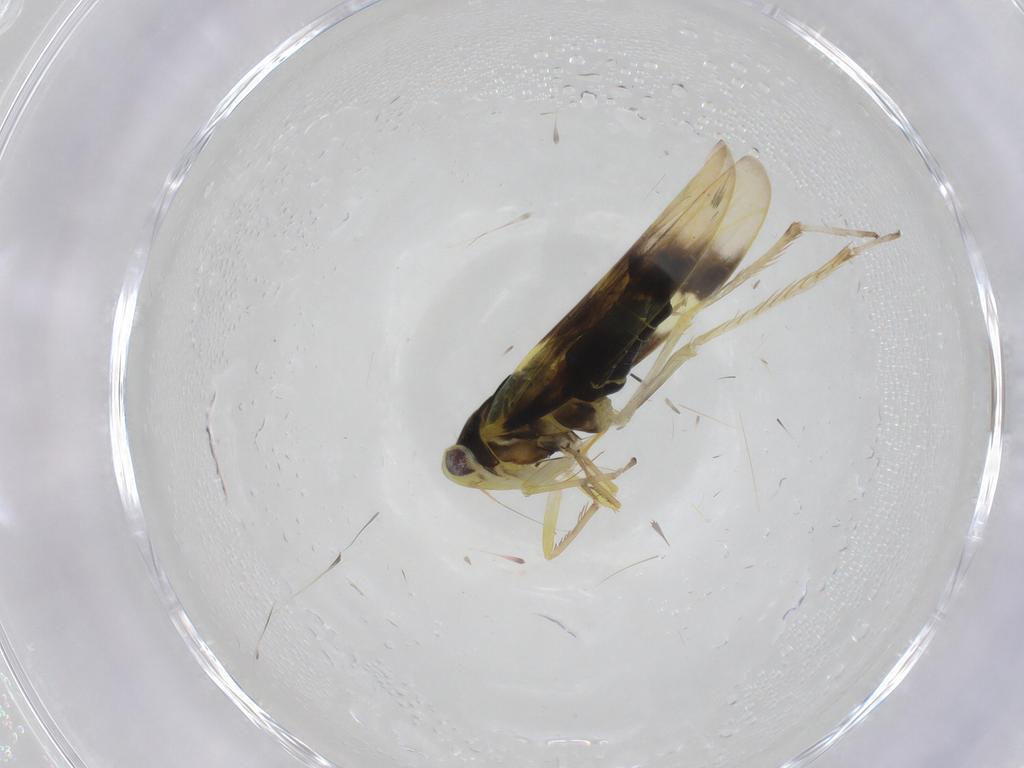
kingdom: Animalia
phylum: Arthropoda
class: Insecta
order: Hemiptera
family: Cicadellidae
